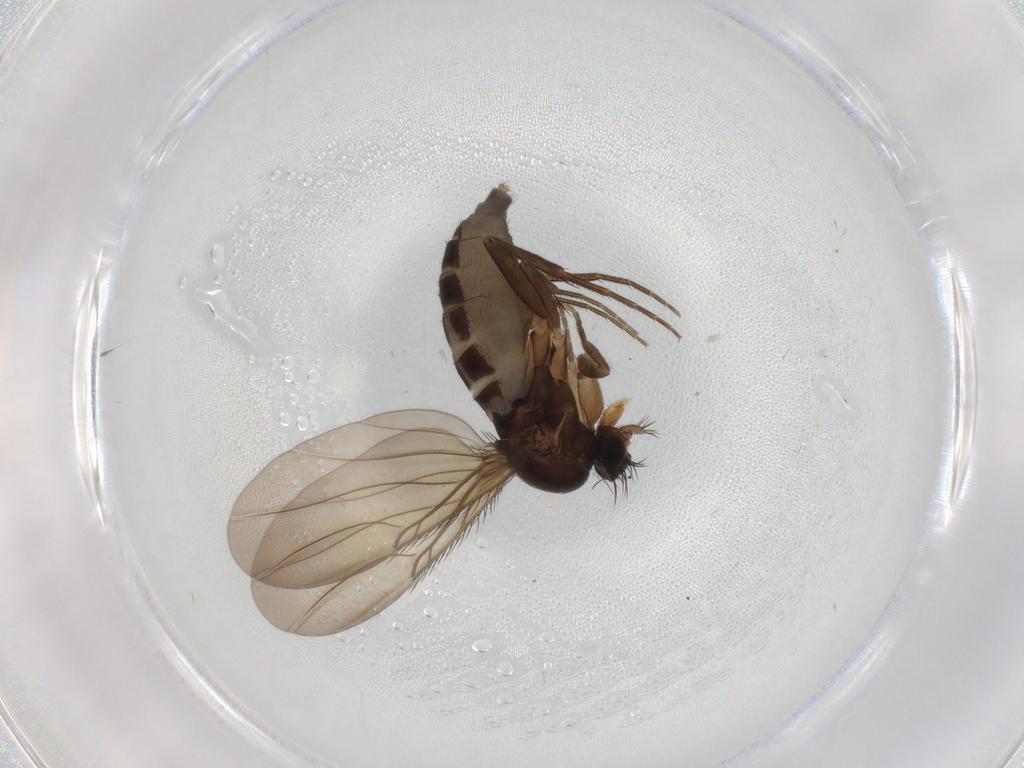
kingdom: Animalia
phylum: Arthropoda
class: Insecta
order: Diptera
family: Phoridae
